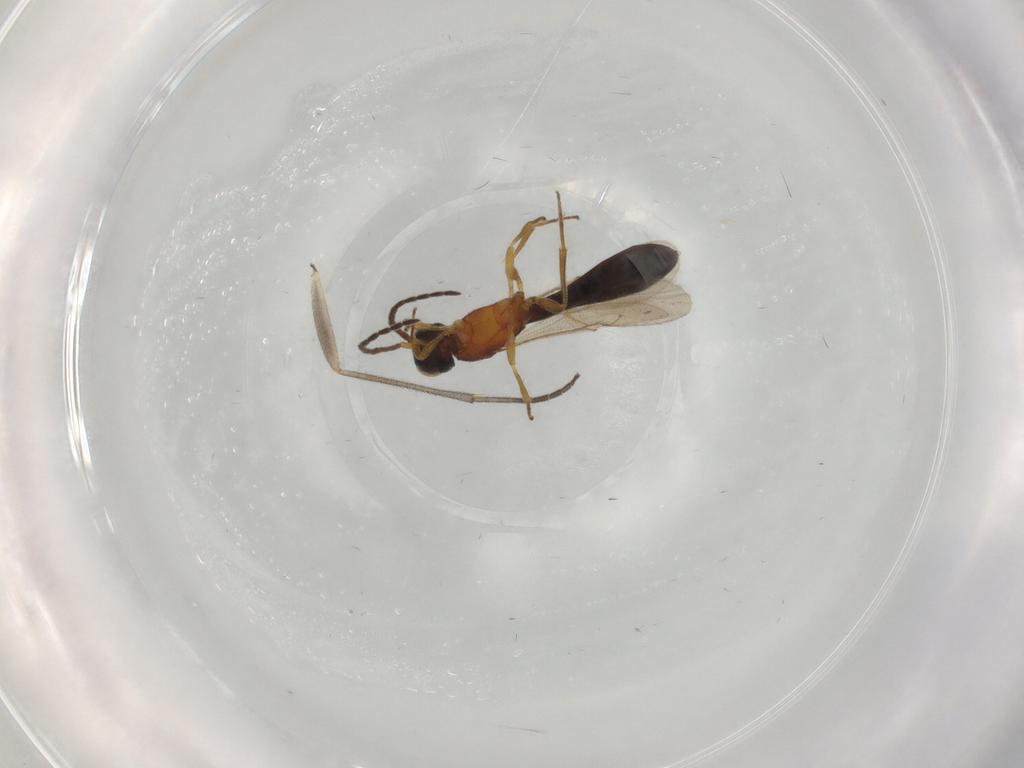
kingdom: Animalia
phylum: Arthropoda
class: Insecta
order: Diptera
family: Sciaridae
